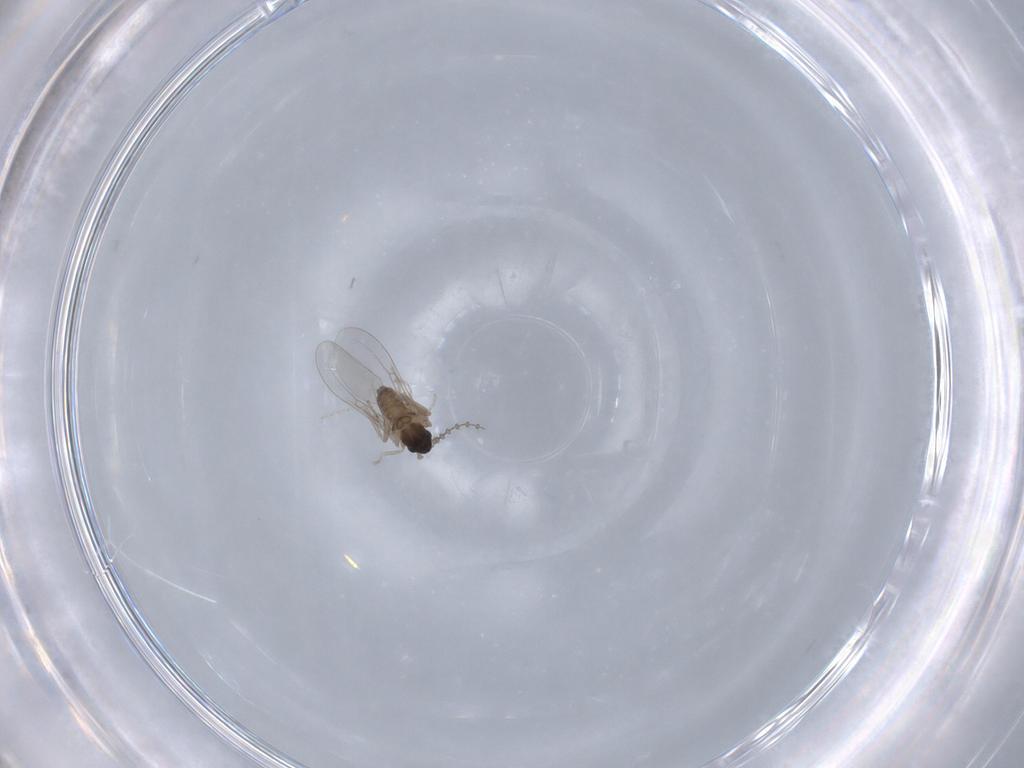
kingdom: Animalia
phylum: Arthropoda
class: Insecta
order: Diptera
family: Cecidomyiidae
